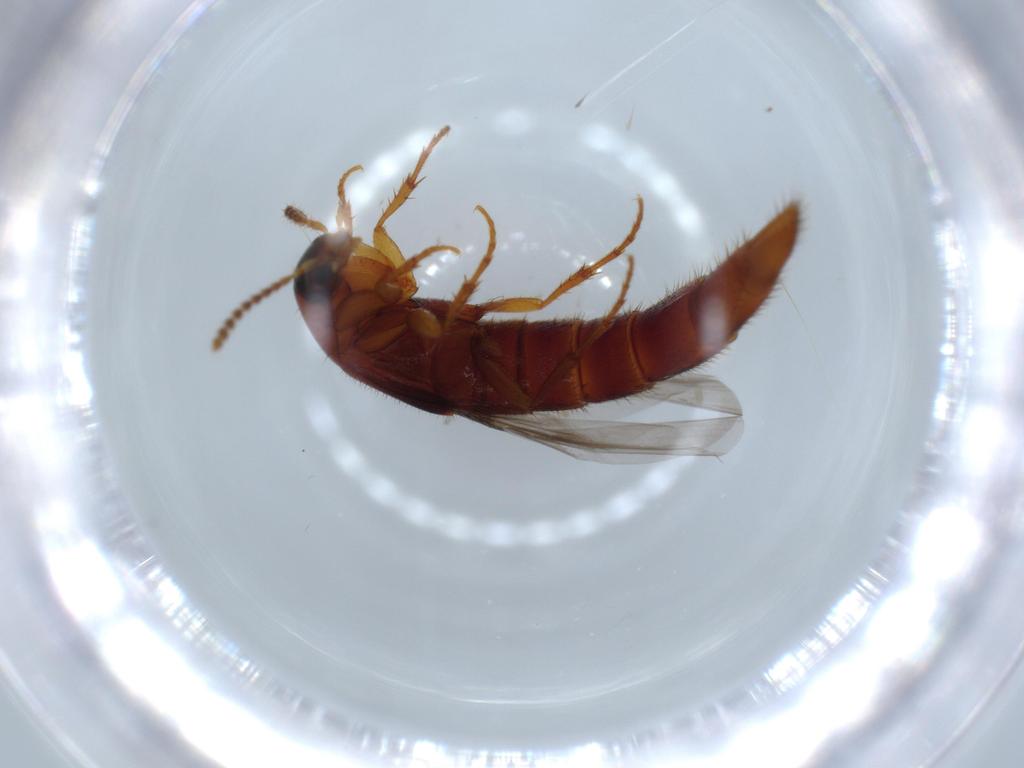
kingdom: Animalia
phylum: Arthropoda
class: Insecta
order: Coleoptera
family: Staphylinidae
